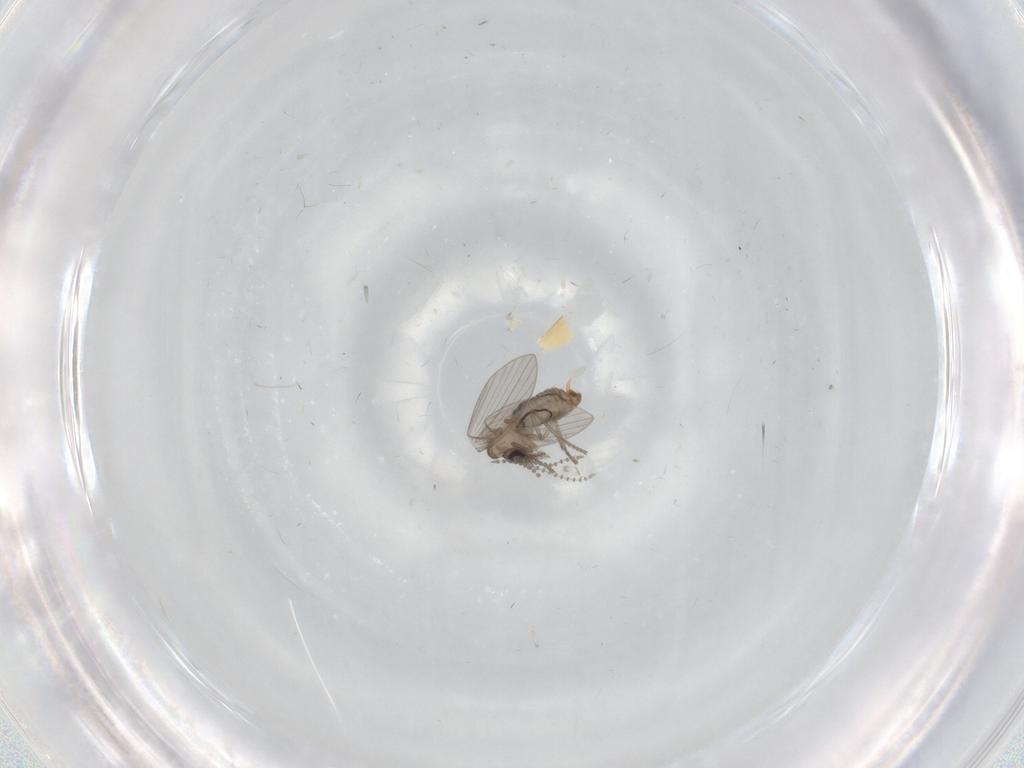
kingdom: Animalia
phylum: Arthropoda
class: Insecta
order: Diptera
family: Psychodidae
